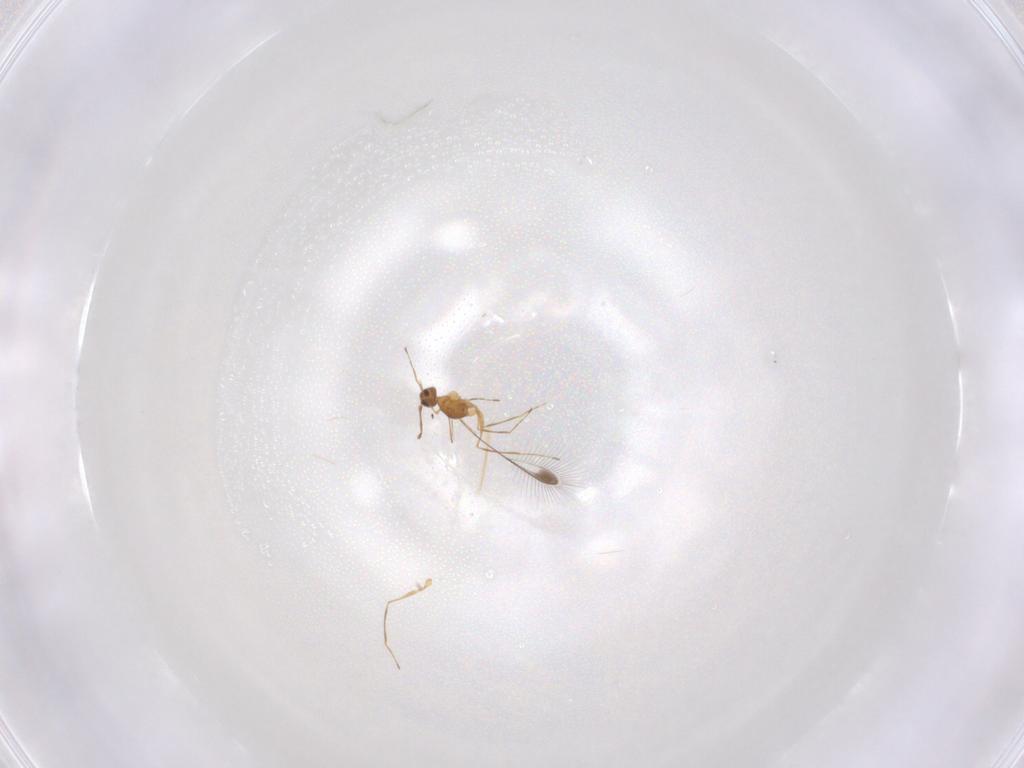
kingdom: Animalia
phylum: Arthropoda
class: Insecta
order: Hymenoptera
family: Mymaridae
